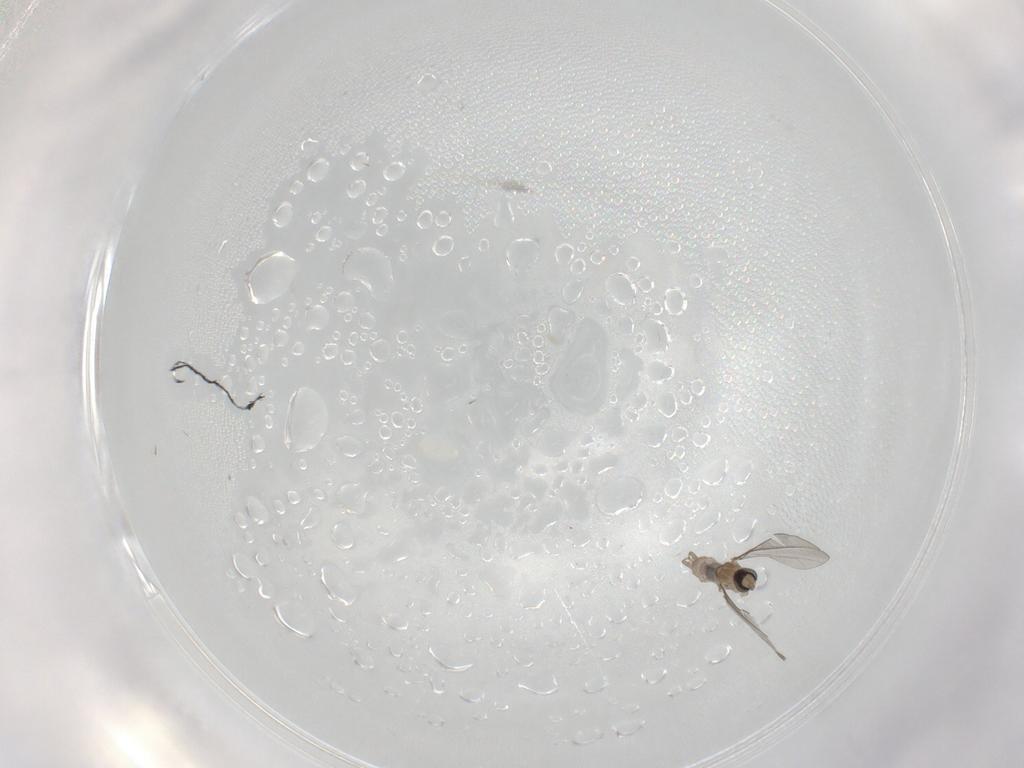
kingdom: Animalia
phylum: Arthropoda
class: Insecta
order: Diptera
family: Cecidomyiidae
